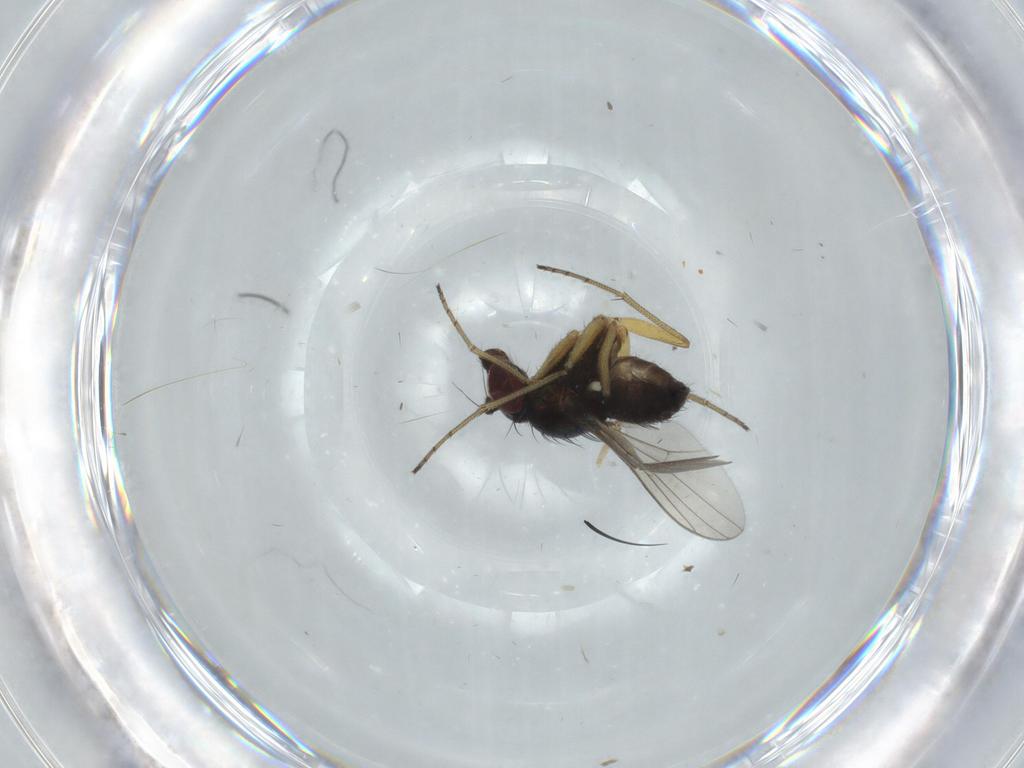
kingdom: Animalia
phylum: Arthropoda
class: Insecta
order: Diptera
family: Dolichopodidae
